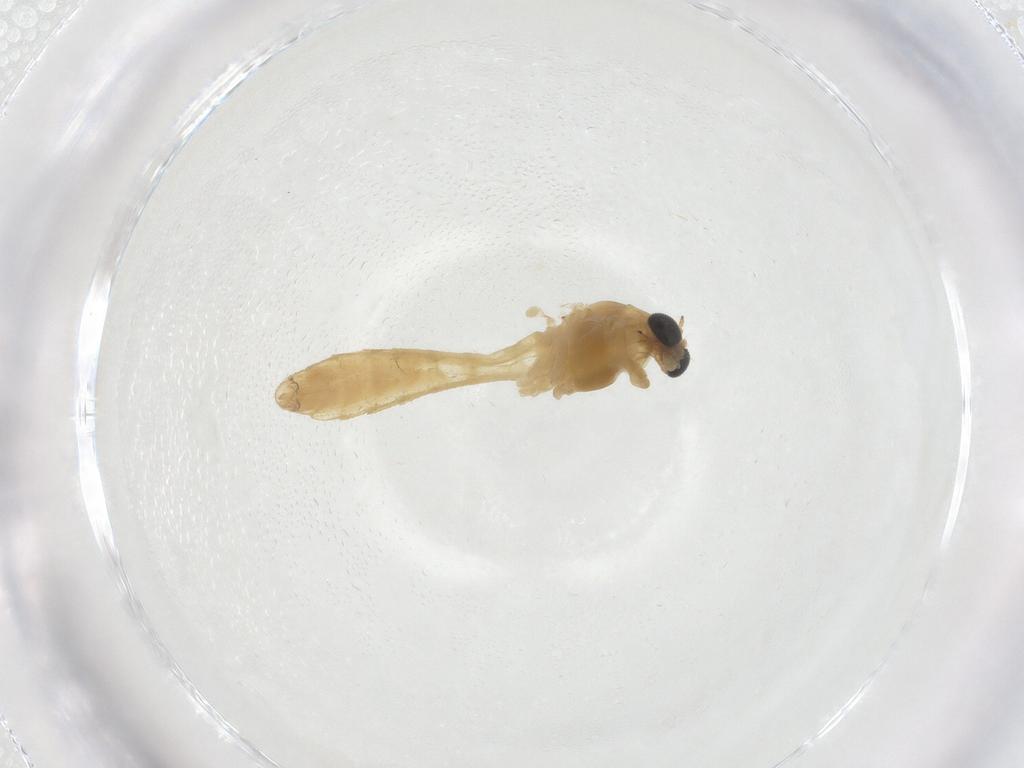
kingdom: Animalia
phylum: Arthropoda
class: Insecta
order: Diptera
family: Chironomidae
